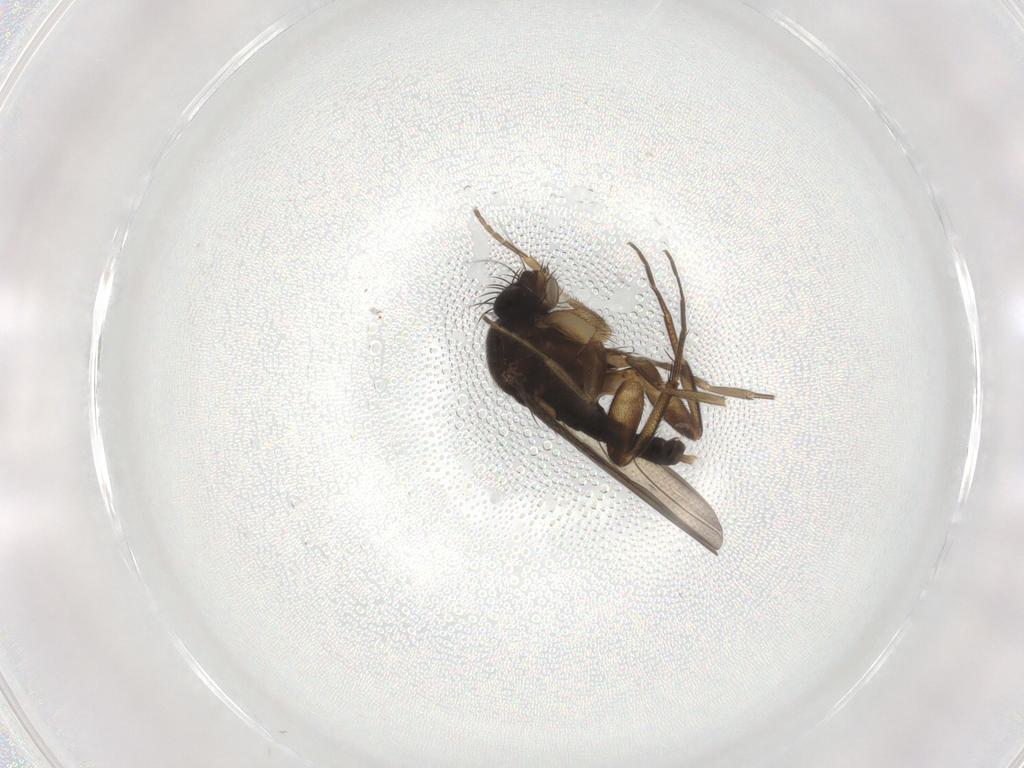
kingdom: Animalia
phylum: Arthropoda
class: Insecta
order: Diptera
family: Phoridae
